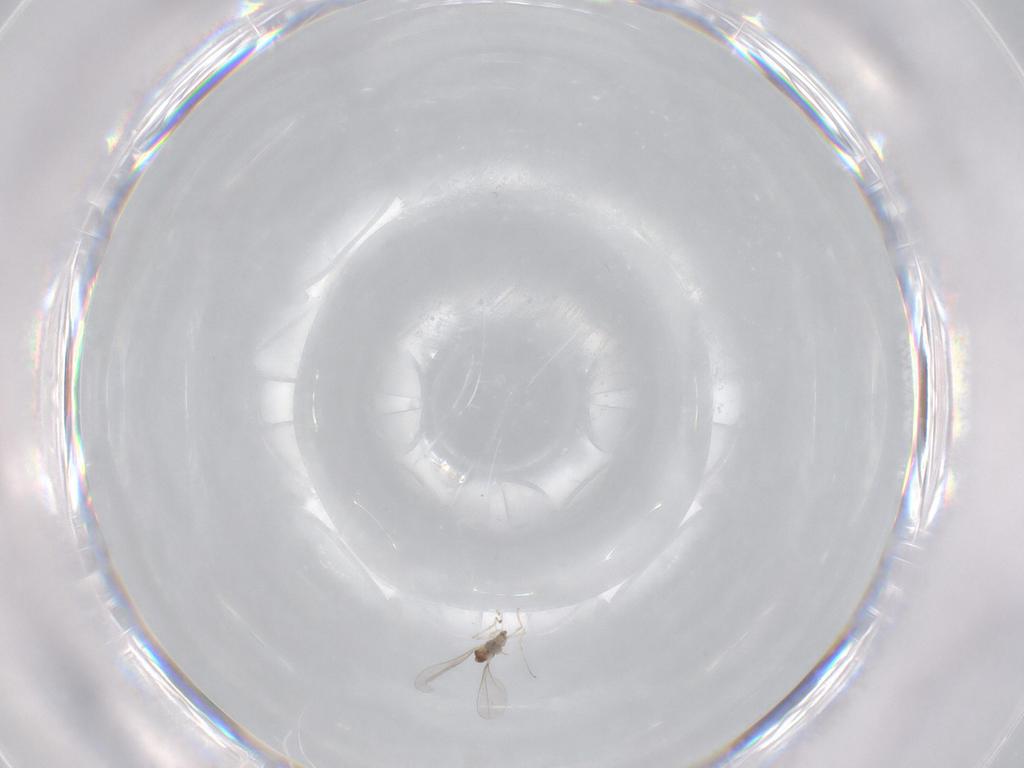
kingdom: Animalia
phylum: Arthropoda
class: Insecta
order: Diptera
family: Cecidomyiidae
